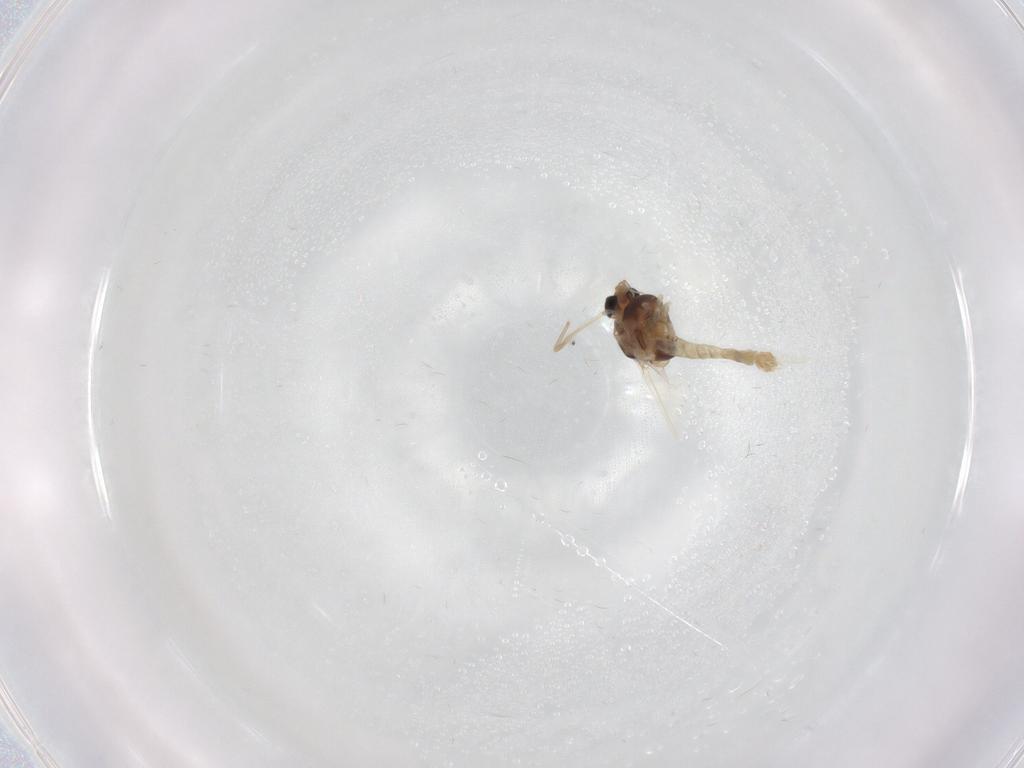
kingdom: Animalia
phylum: Arthropoda
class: Insecta
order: Diptera
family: Chironomidae
